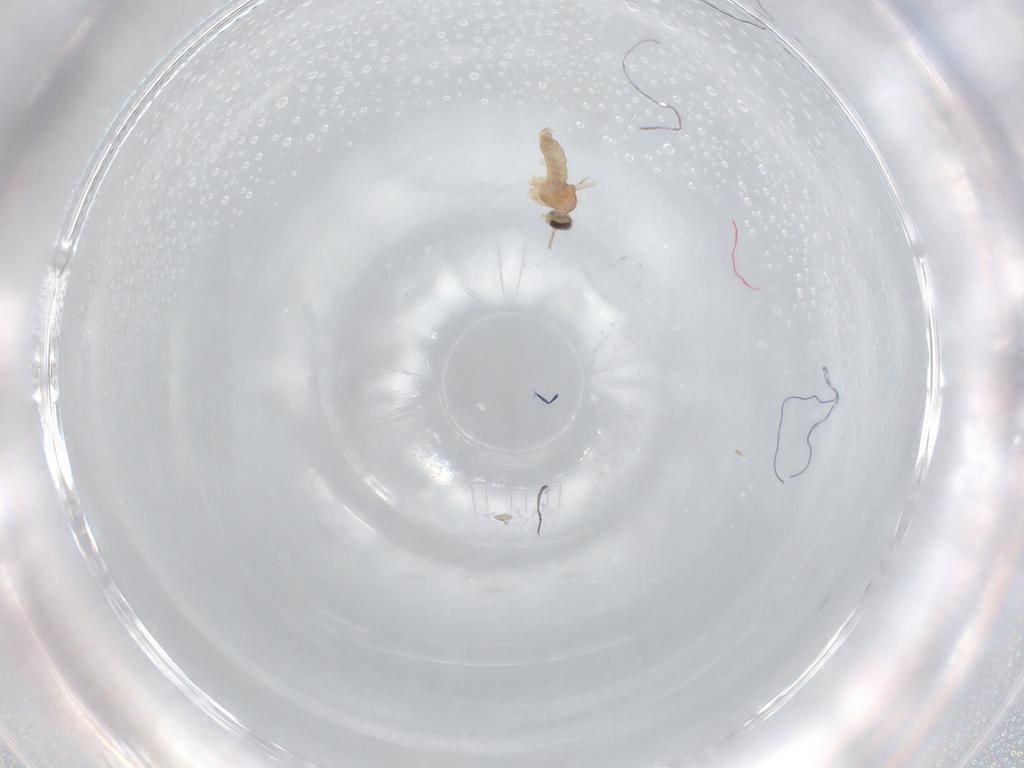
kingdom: Animalia
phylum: Arthropoda
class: Insecta
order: Diptera
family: Cecidomyiidae
